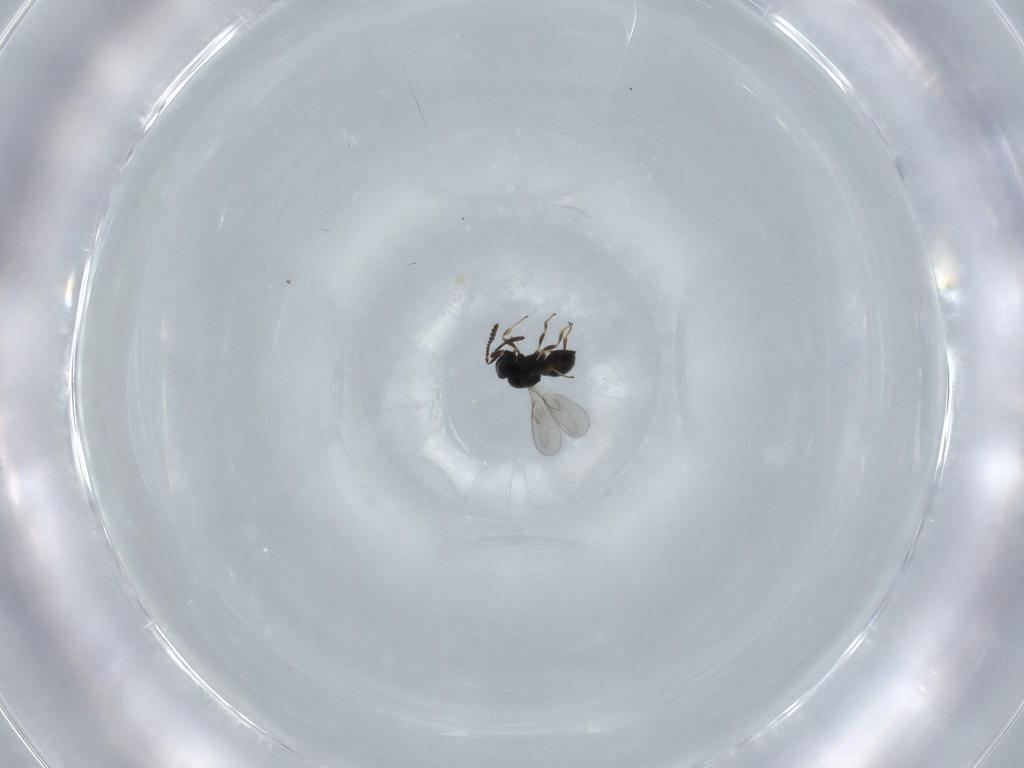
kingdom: Animalia
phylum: Arthropoda
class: Insecta
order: Hymenoptera
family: Scelionidae
